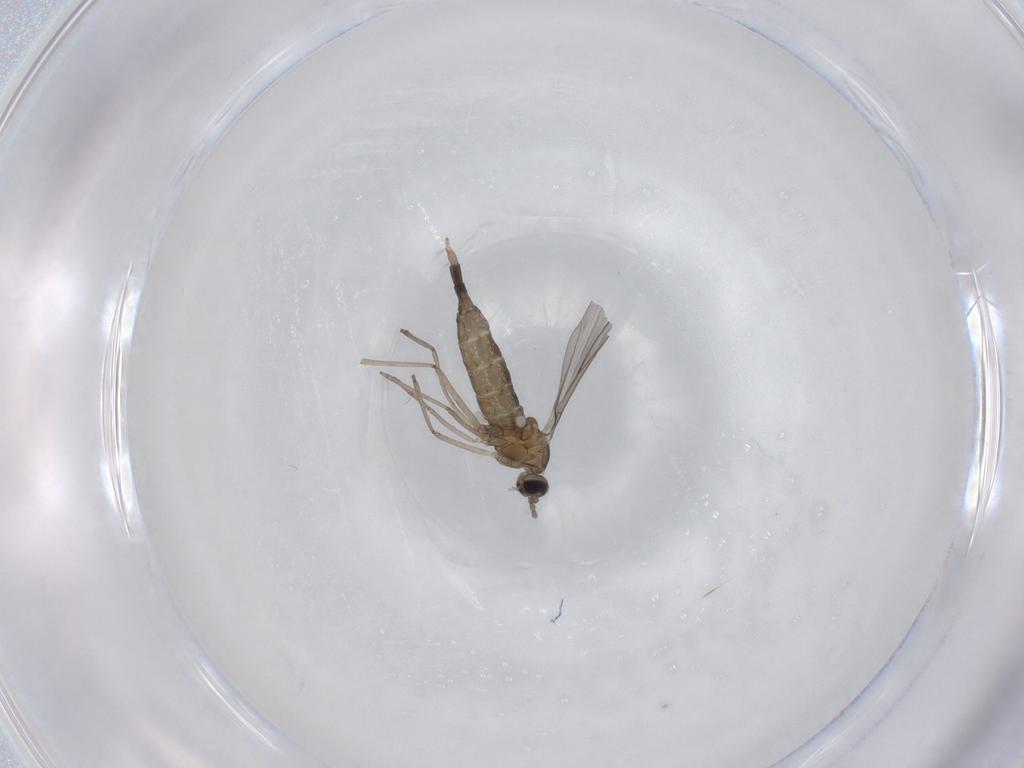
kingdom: Animalia
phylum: Arthropoda
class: Insecta
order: Diptera
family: Cecidomyiidae
